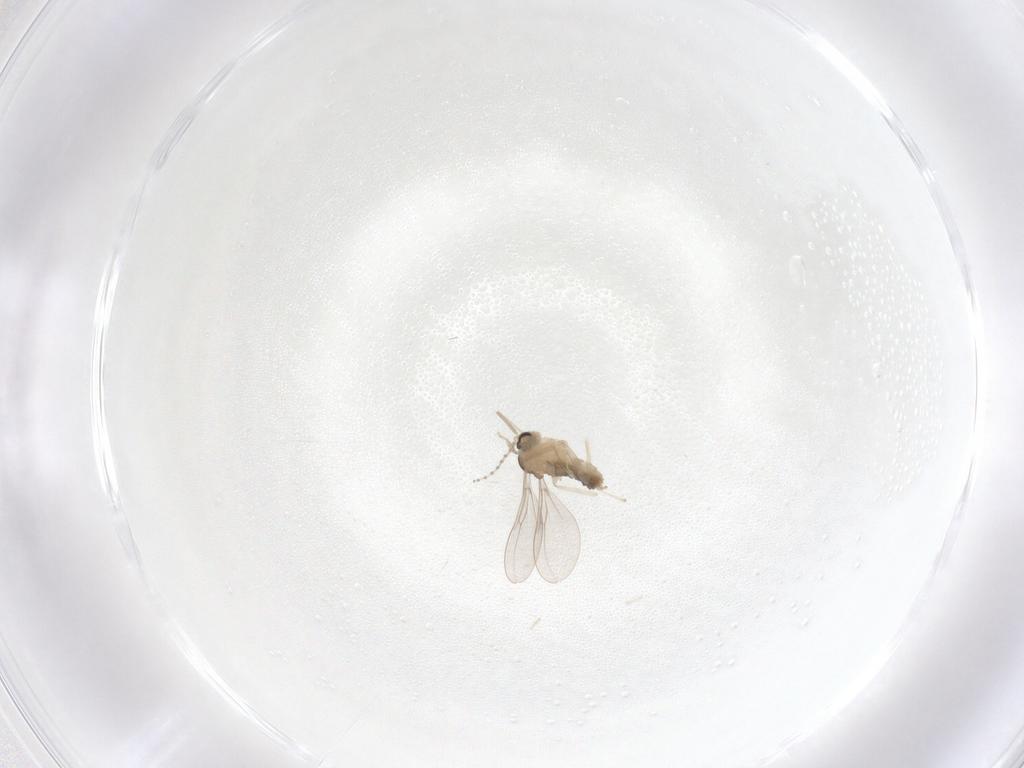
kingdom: Animalia
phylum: Arthropoda
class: Insecta
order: Diptera
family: Cecidomyiidae
